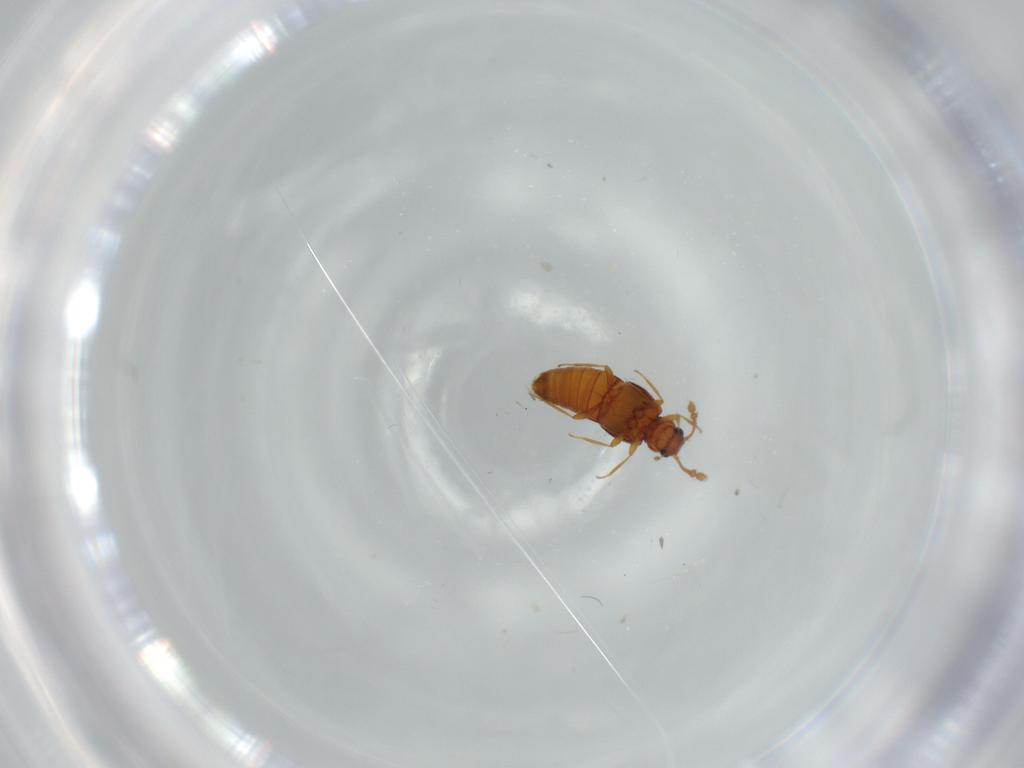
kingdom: Animalia
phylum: Arthropoda
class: Insecta
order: Coleoptera
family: Staphylinidae
